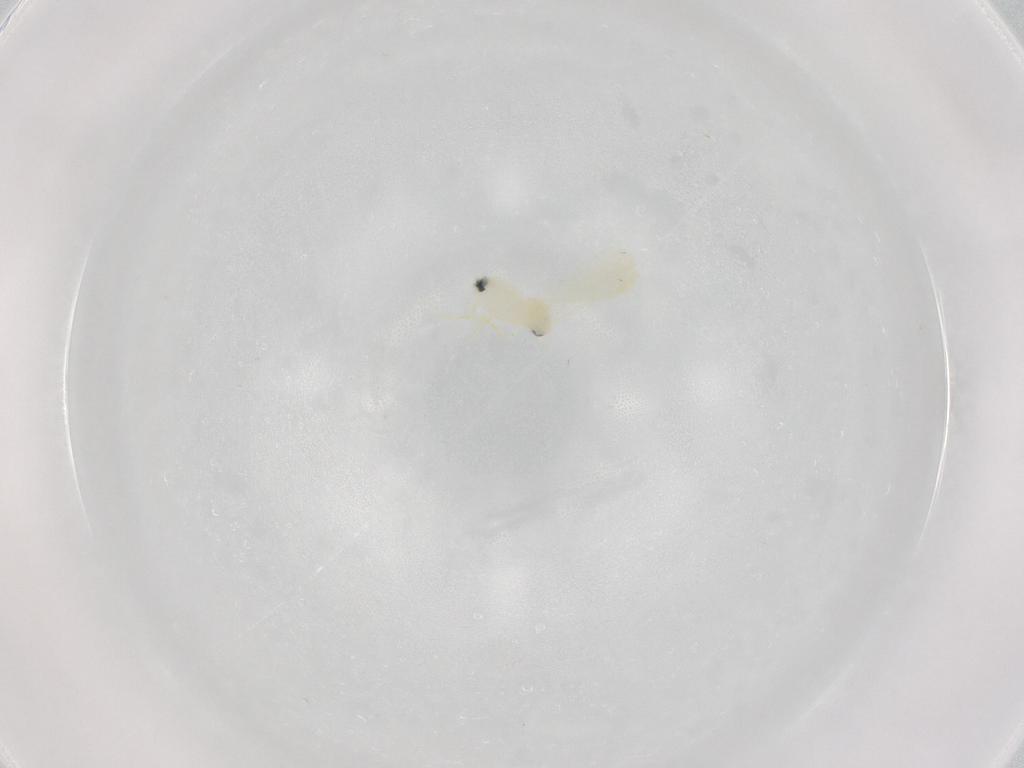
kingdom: Animalia
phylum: Arthropoda
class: Insecta
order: Hemiptera
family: Aleyrodidae
